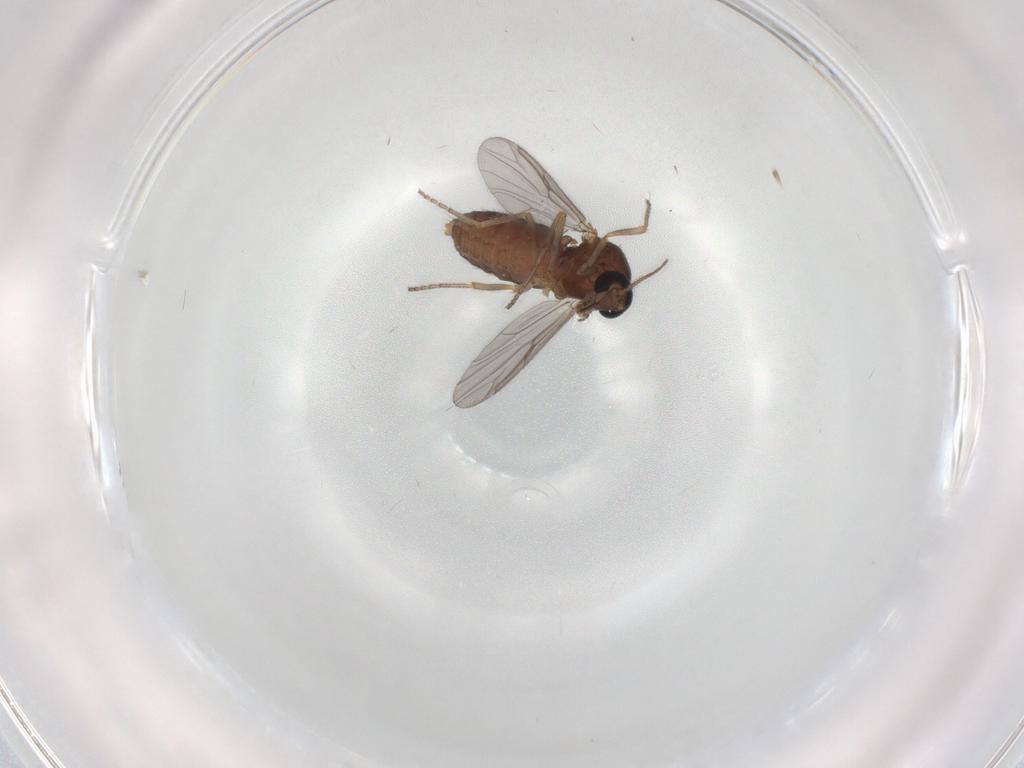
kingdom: Animalia
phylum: Arthropoda
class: Insecta
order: Diptera
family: Ceratopogonidae
